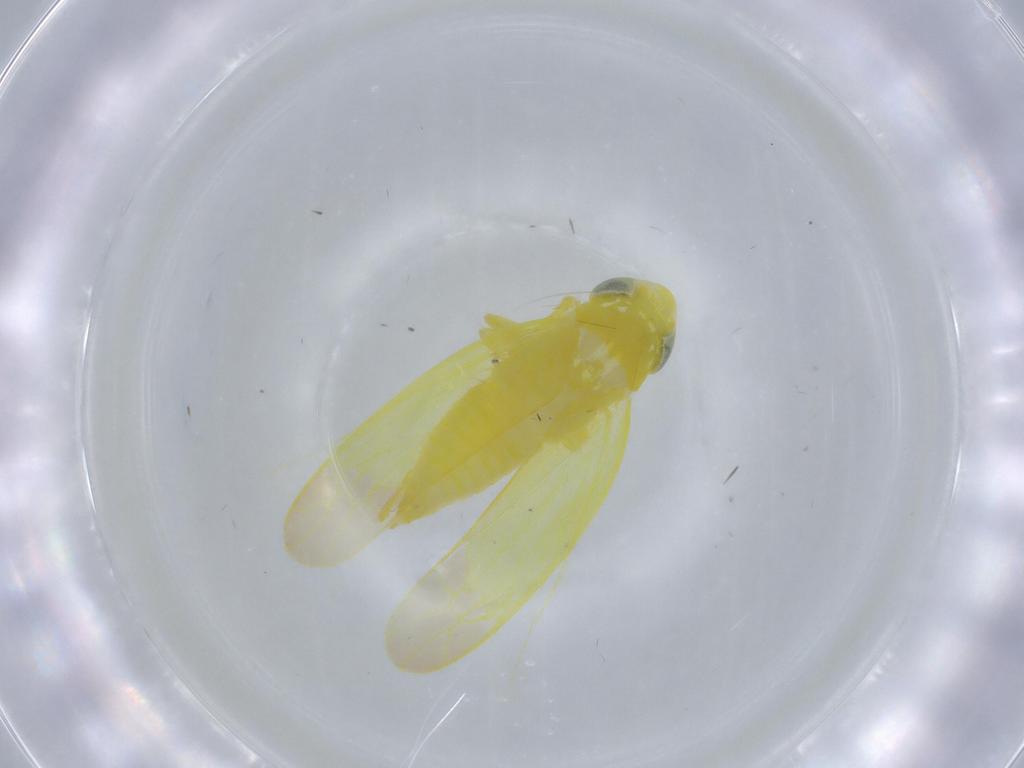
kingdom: Animalia
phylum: Arthropoda
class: Insecta
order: Hemiptera
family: Cicadellidae
